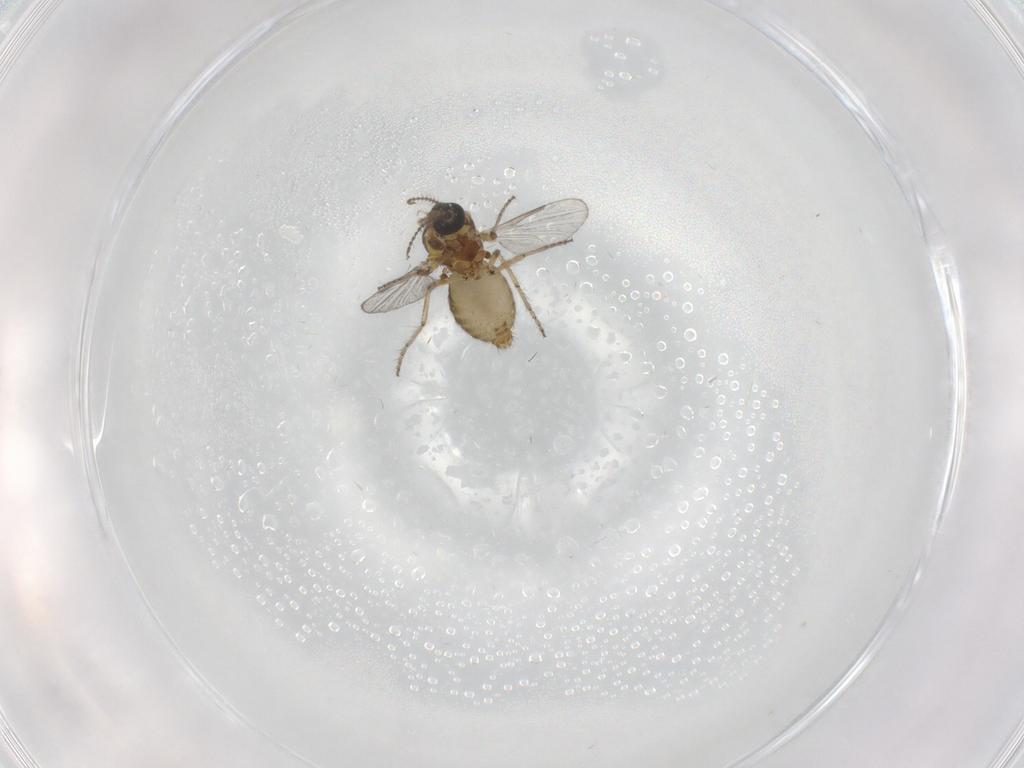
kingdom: Animalia
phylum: Arthropoda
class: Insecta
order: Diptera
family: Ceratopogonidae
